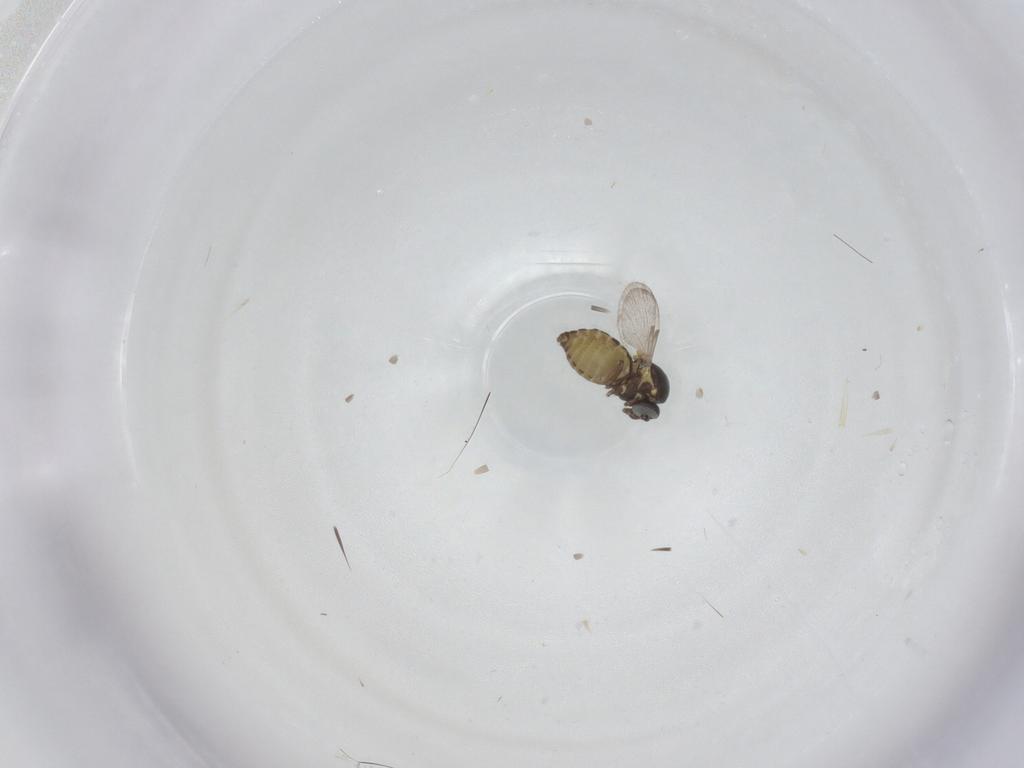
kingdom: Animalia
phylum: Arthropoda
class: Insecta
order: Diptera
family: Ceratopogonidae
